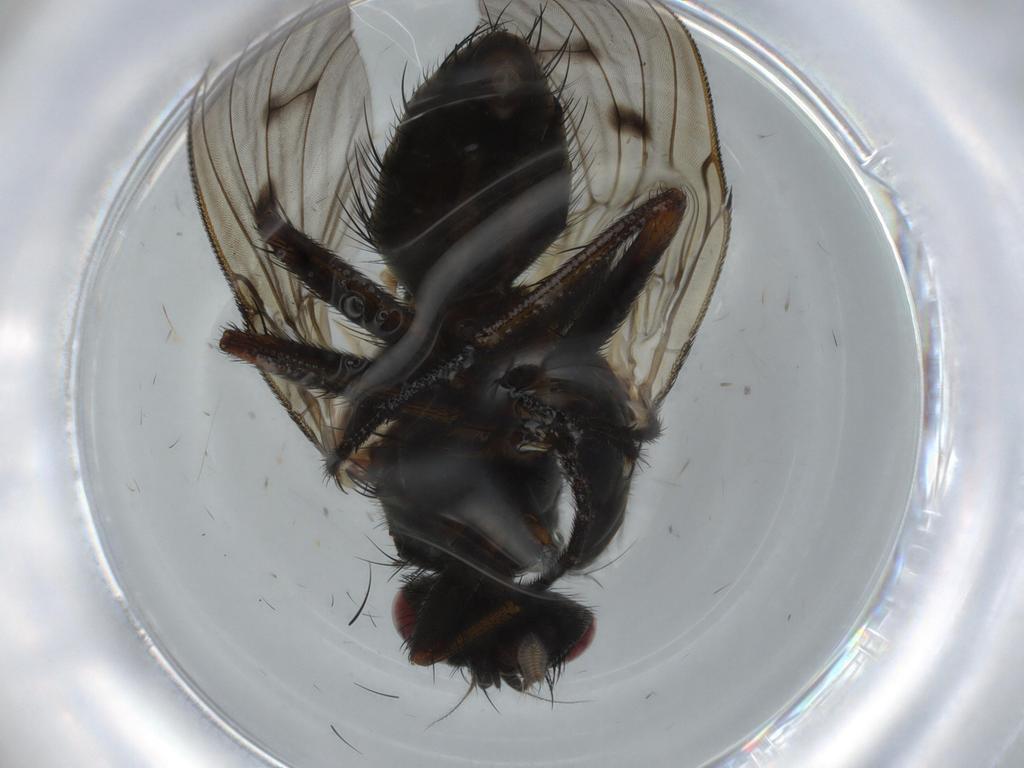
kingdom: Animalia
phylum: Arthropoda
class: Insecta
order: Diptera
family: Muscidae
